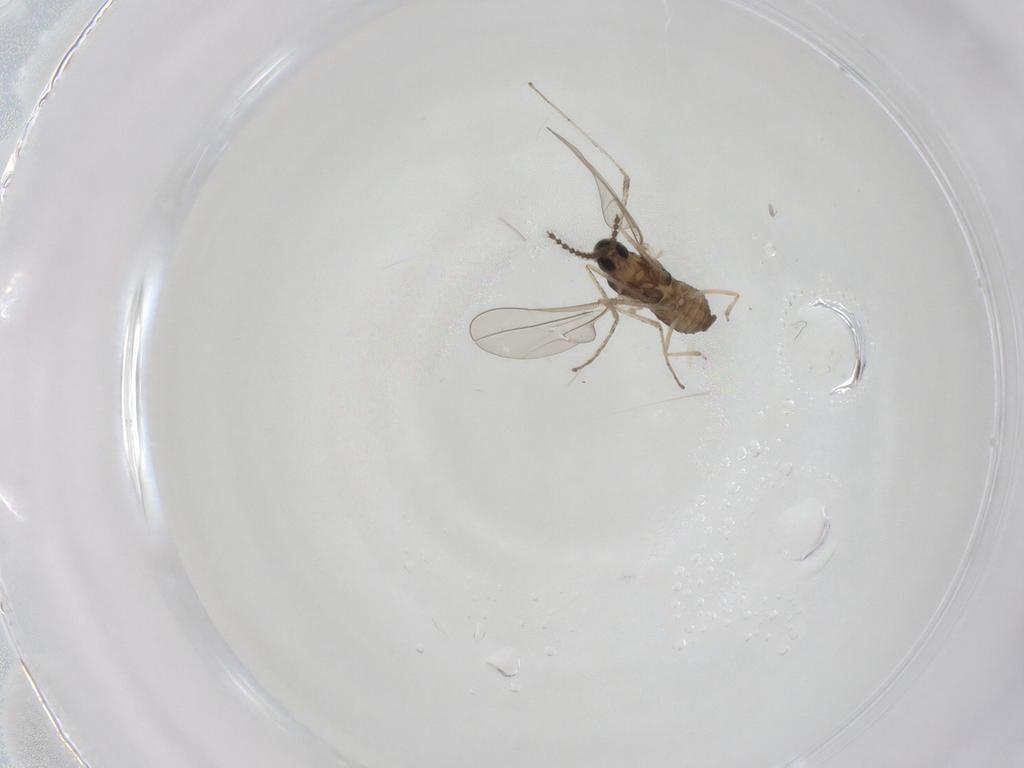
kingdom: Animalia
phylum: Arthropoda
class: Insecta
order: Diptera
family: Cecidomyiidae
